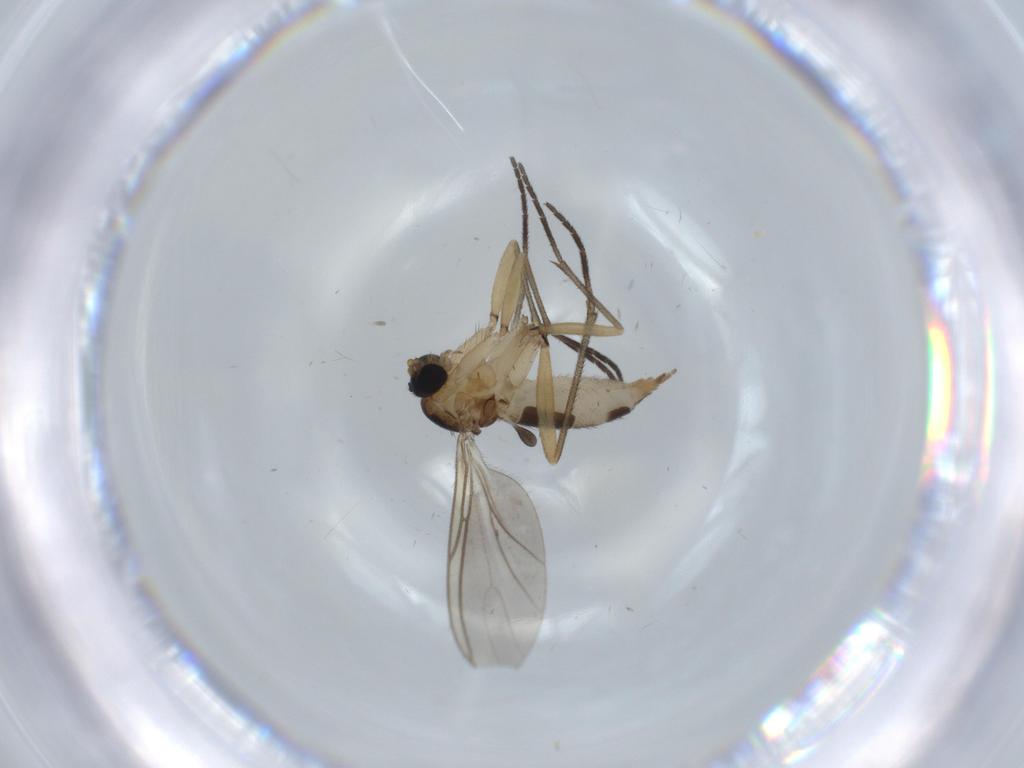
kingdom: Animalia
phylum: Arthropoda
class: Insecta
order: Diptera
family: Sciaridae
